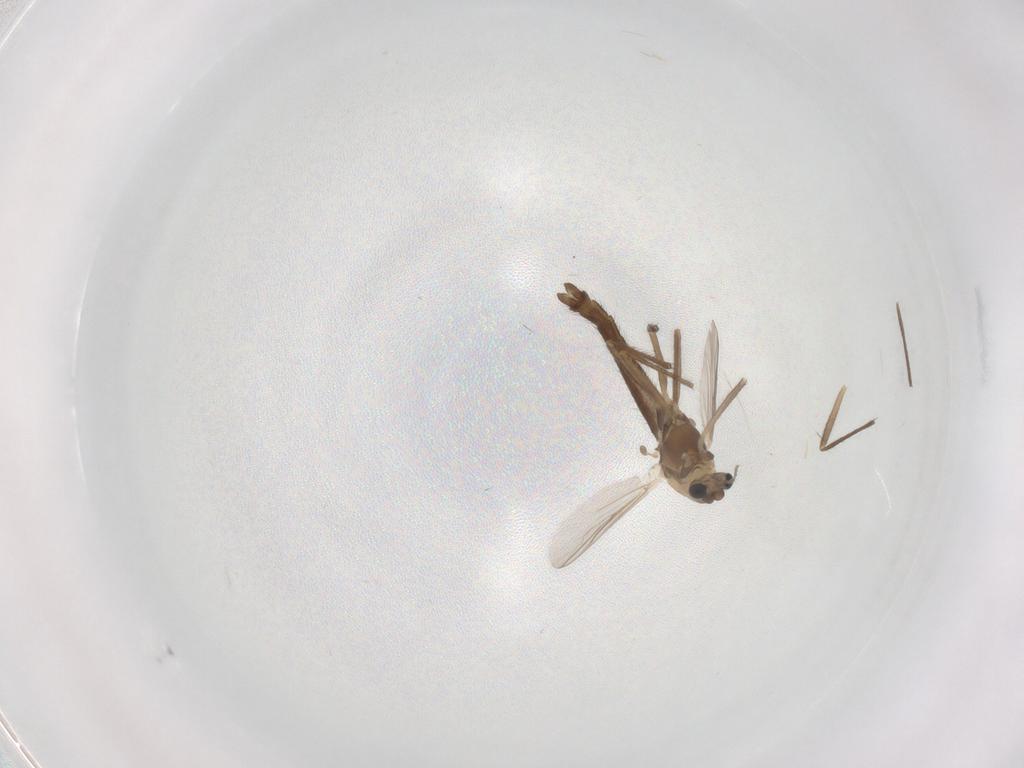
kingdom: Animalia
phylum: Arthropoda
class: Insecta
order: Diptera
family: Chironomidae
